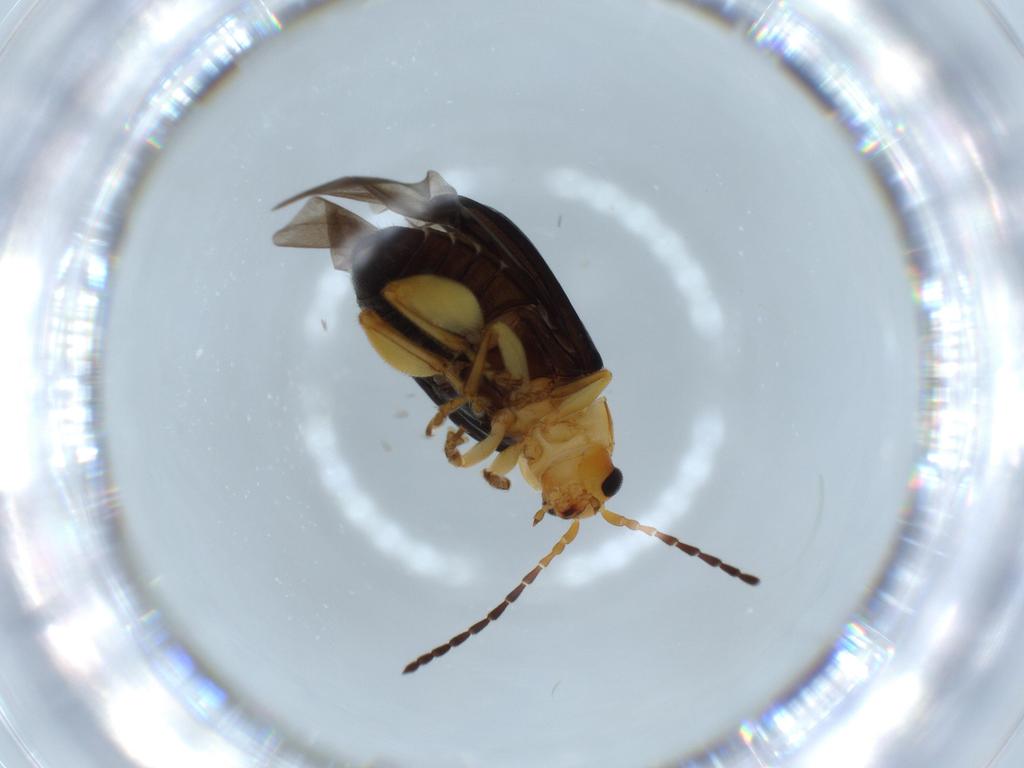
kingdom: Animalia
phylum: Arthropoda
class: Insecta
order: Coleoptera
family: Chrysomelidae
